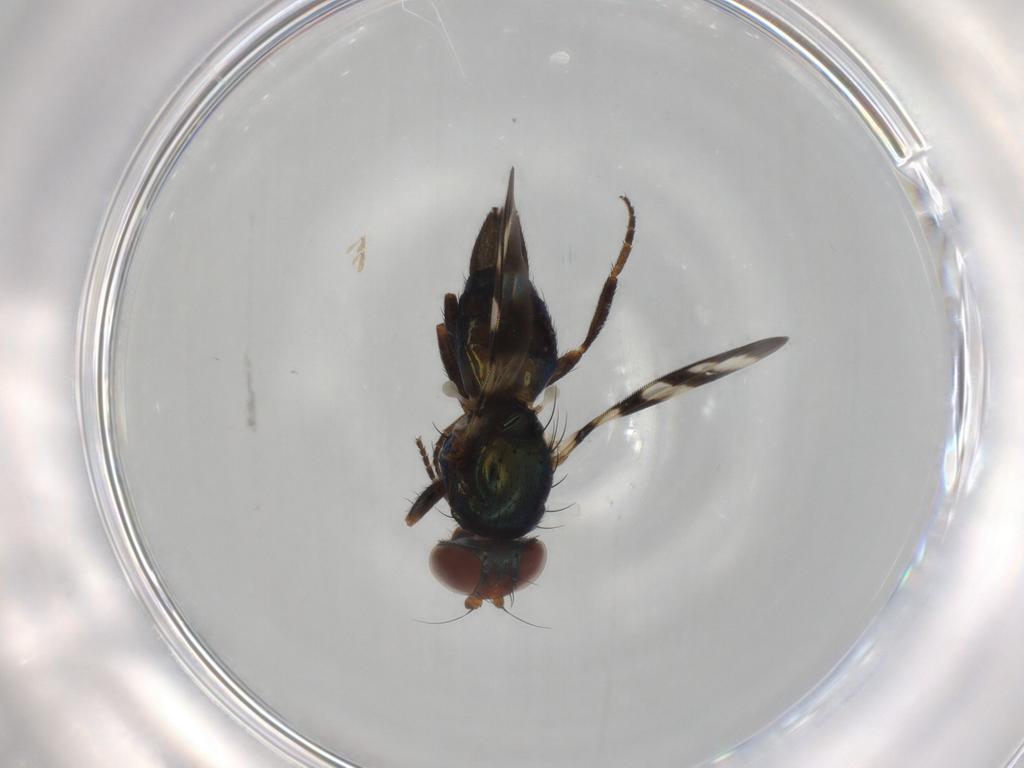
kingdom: Animalia
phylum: Arthropoda
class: Insecta
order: Diptera
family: Ulidiidae
